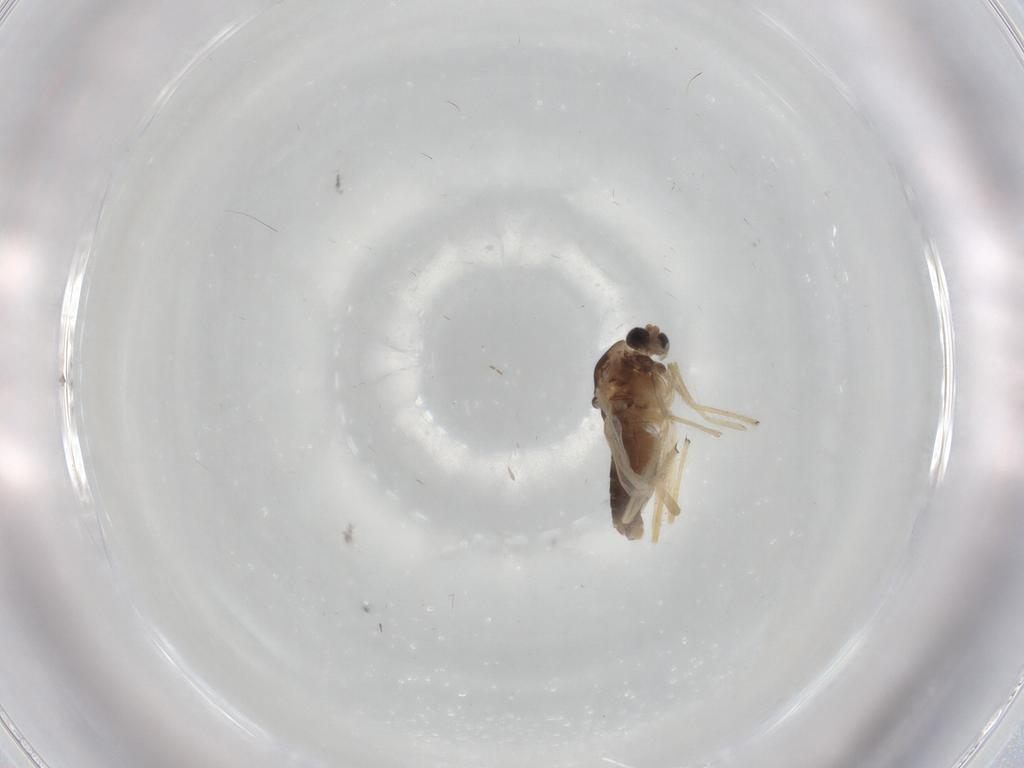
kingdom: Animalia
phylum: Arthropoda
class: Insecta
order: Diptera
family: Chironomidae
